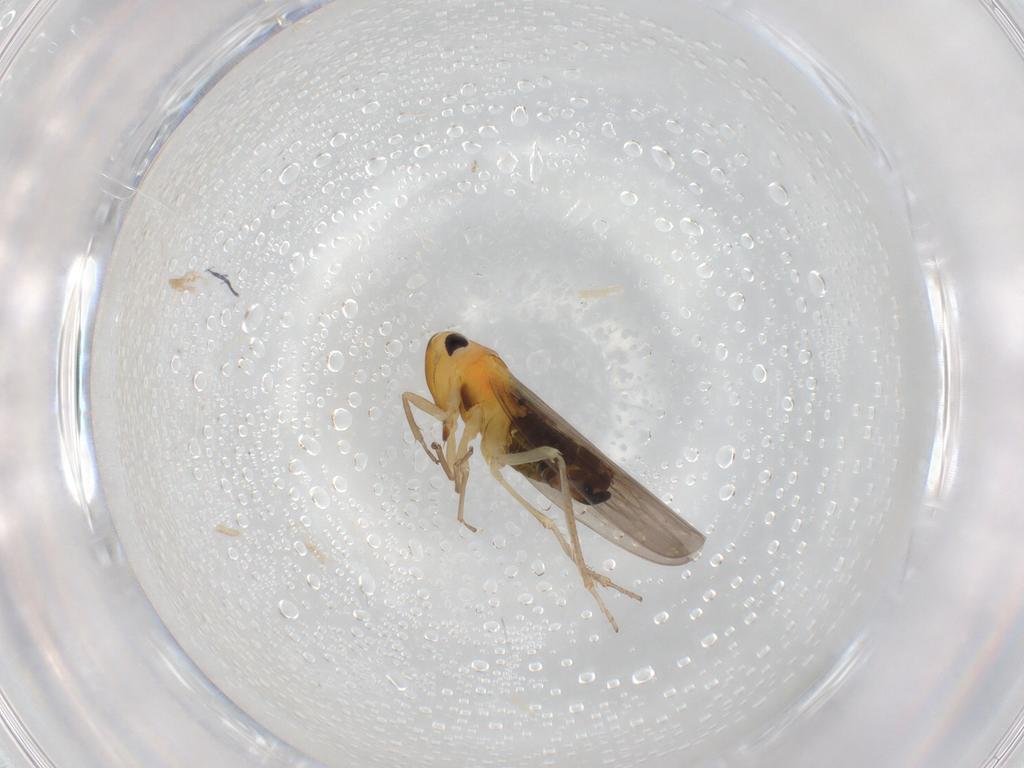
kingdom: Animalia
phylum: Arthropoda
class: Insecta
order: Hemiptera
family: Cicadellidae
